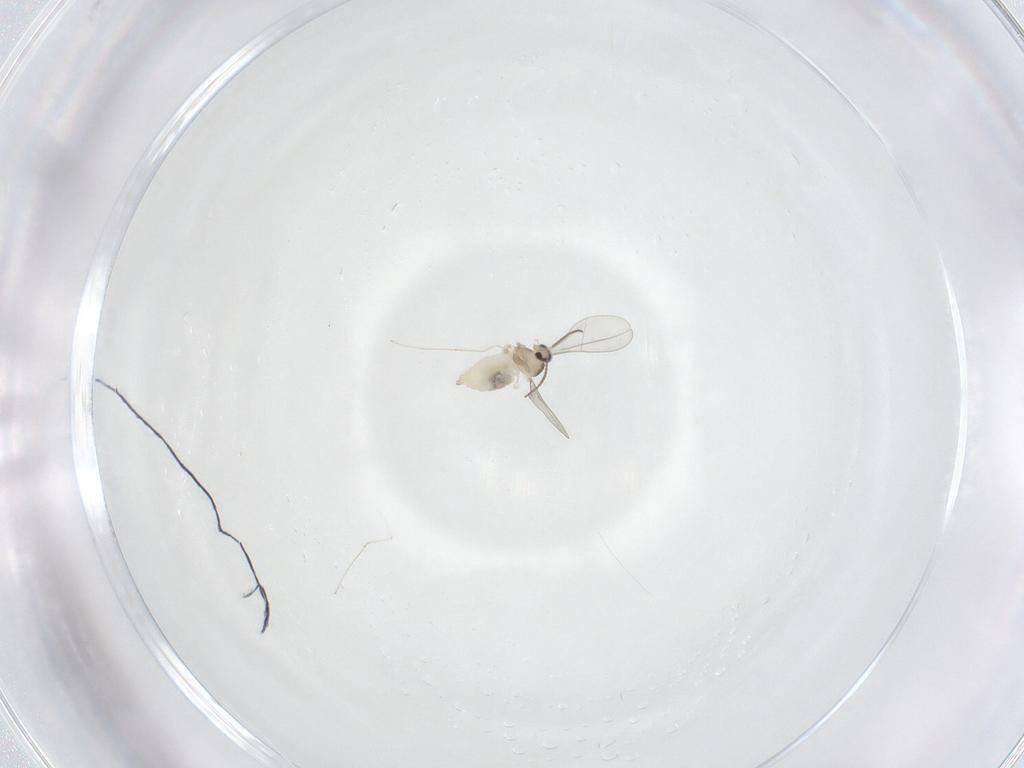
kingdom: Animalia
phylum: Arthropoda
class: Insecta
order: Diptera
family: Cecidomyiidae
